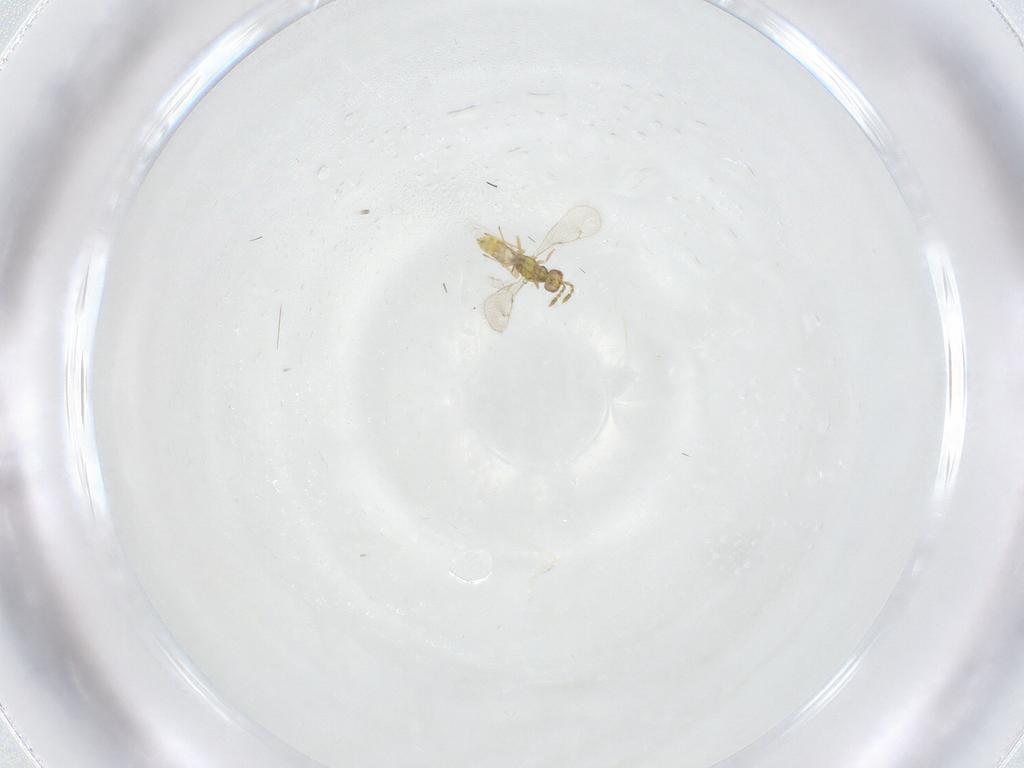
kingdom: Animalia
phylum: Arthropoda
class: Insecta
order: Hymenoptera
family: Eulophidae
